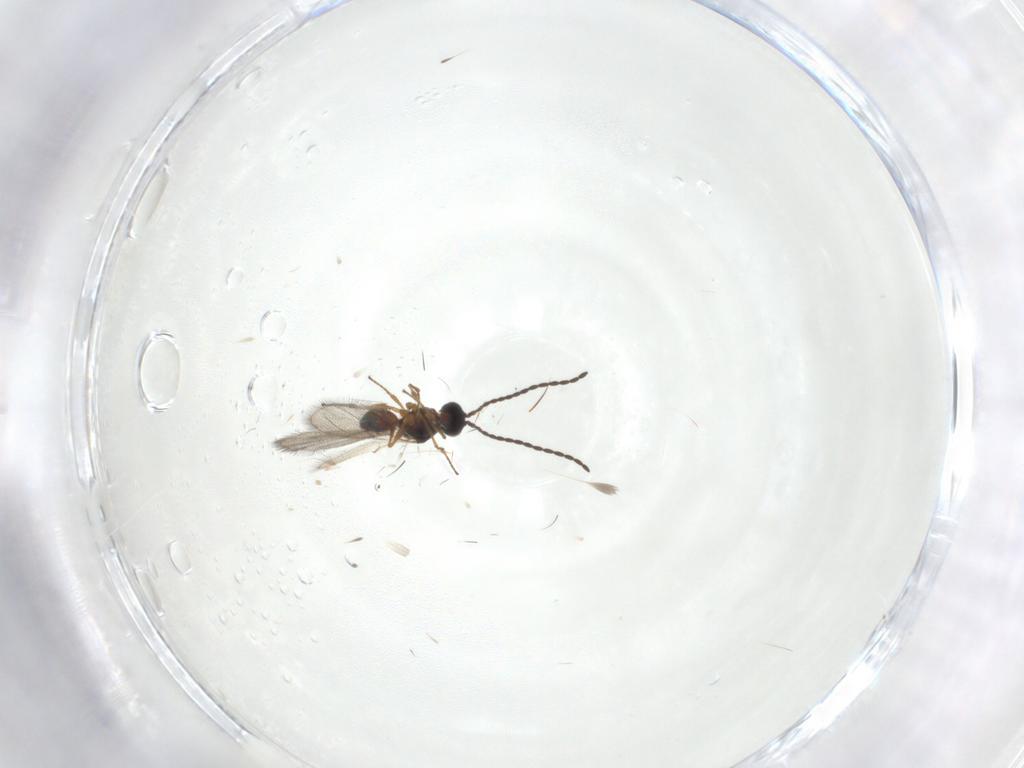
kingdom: Animalia
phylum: Arthropoda
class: Insecta
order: Hymenoptera
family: Figitidae
